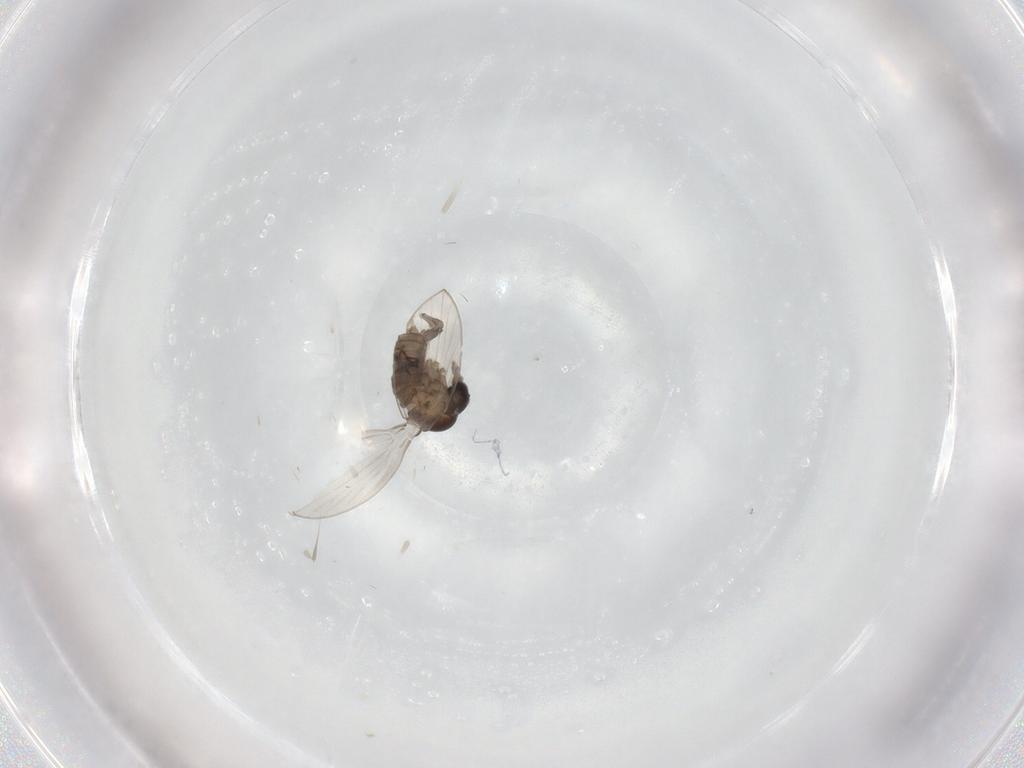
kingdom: Animalia
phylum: Arthropoda
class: Insecta
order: Diptera
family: Psychodidae
